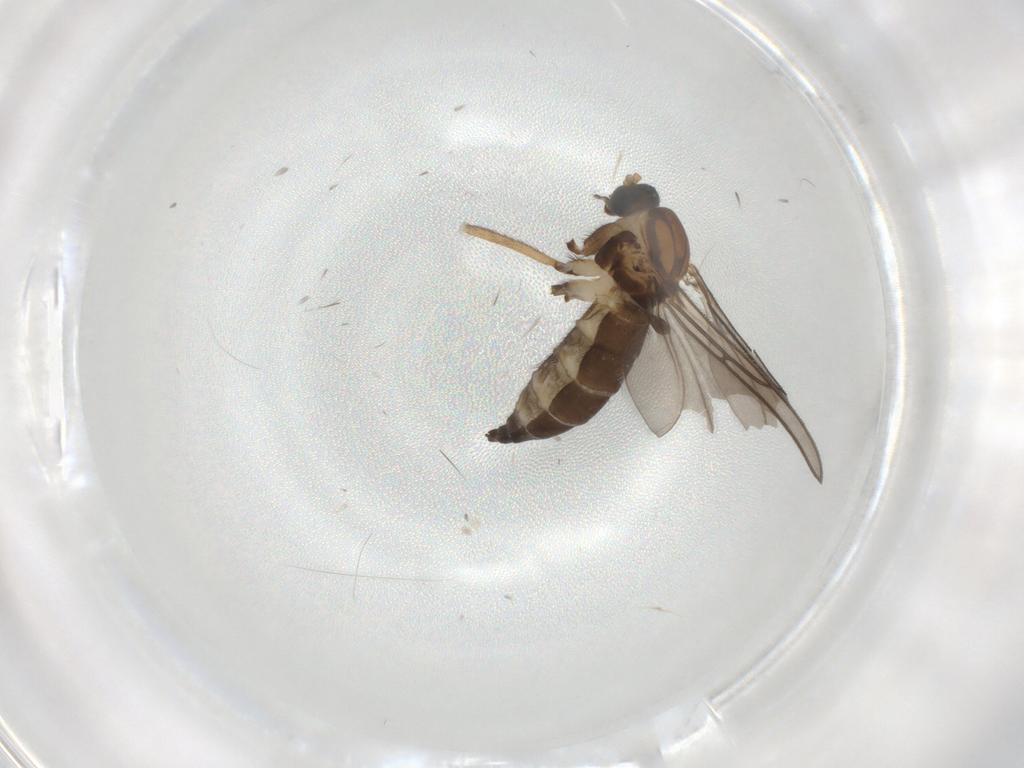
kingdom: Animalia
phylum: Arthropoda
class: Insecta
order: Diptera
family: Sciaridae
